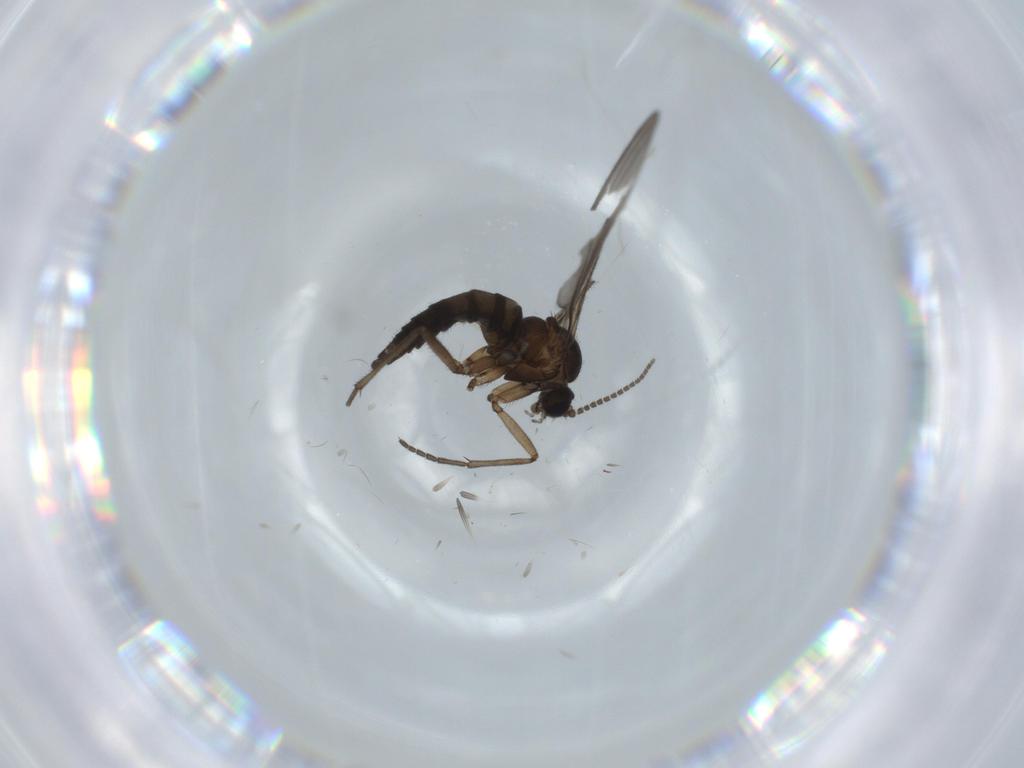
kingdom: Animalia
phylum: Arthropoda
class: Insecta
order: Diptera
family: Sciaridae
